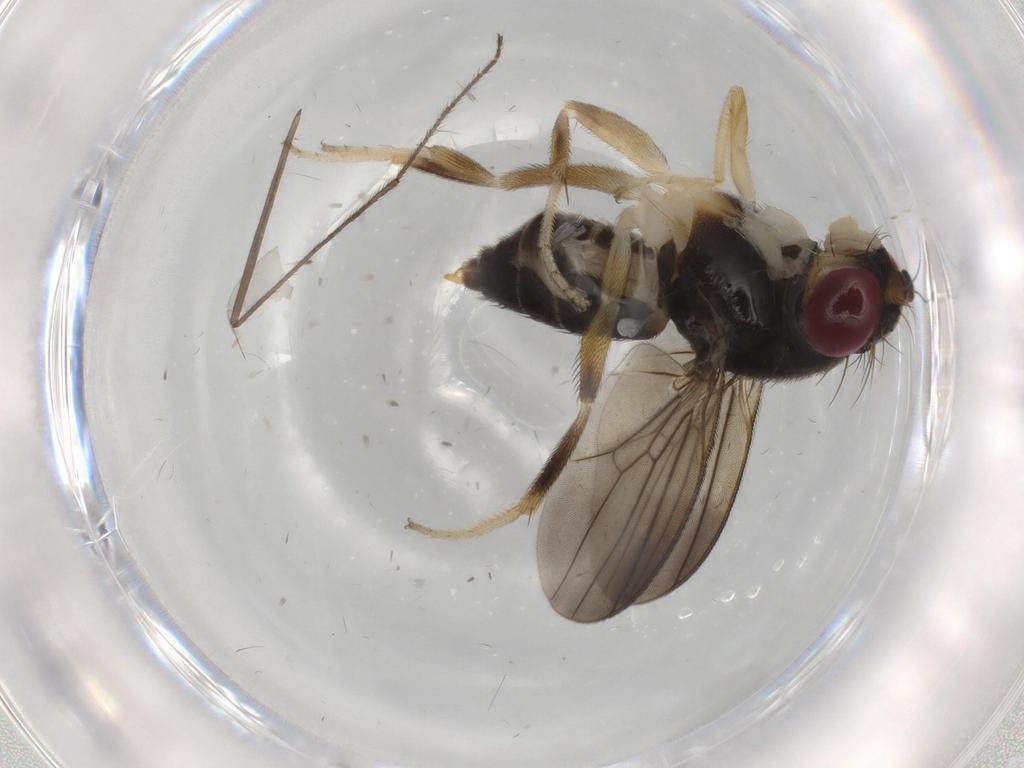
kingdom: Animalia
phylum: Arthropoda
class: Insecta
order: Diptera
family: Clusiidae
